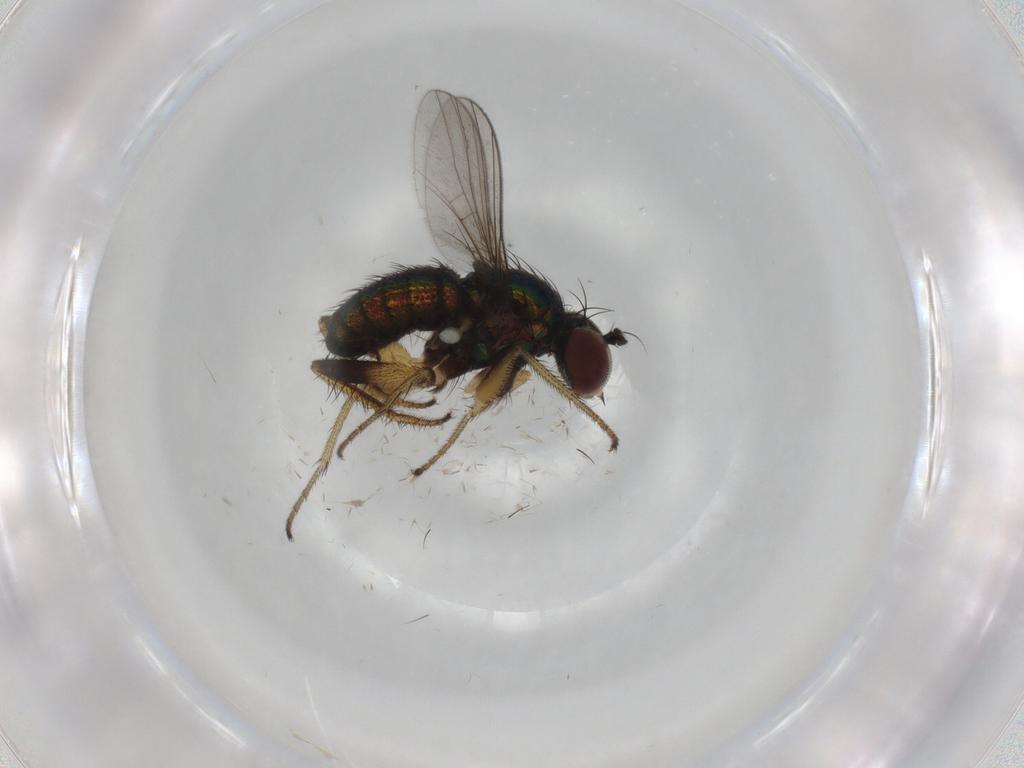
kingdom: Animalia
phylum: Arthropoda
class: Insecta
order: Diptera
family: Dolichopodidae
